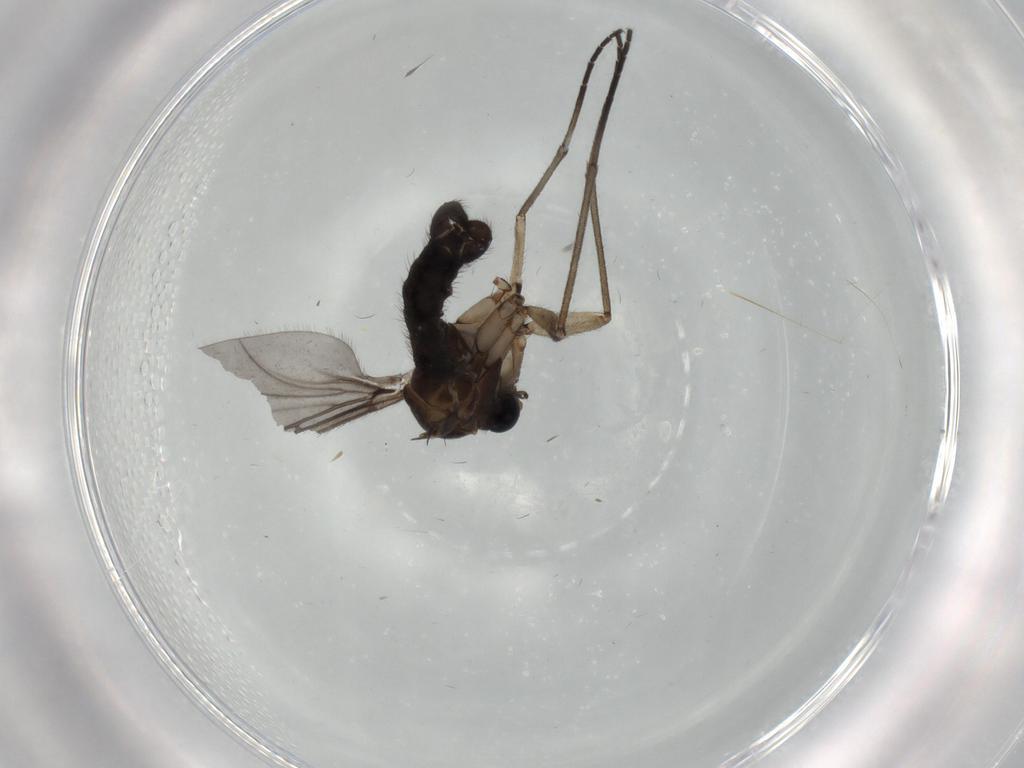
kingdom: Animalia
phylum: Arthropoda
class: Insecta
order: Diptera
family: Sciaridae
